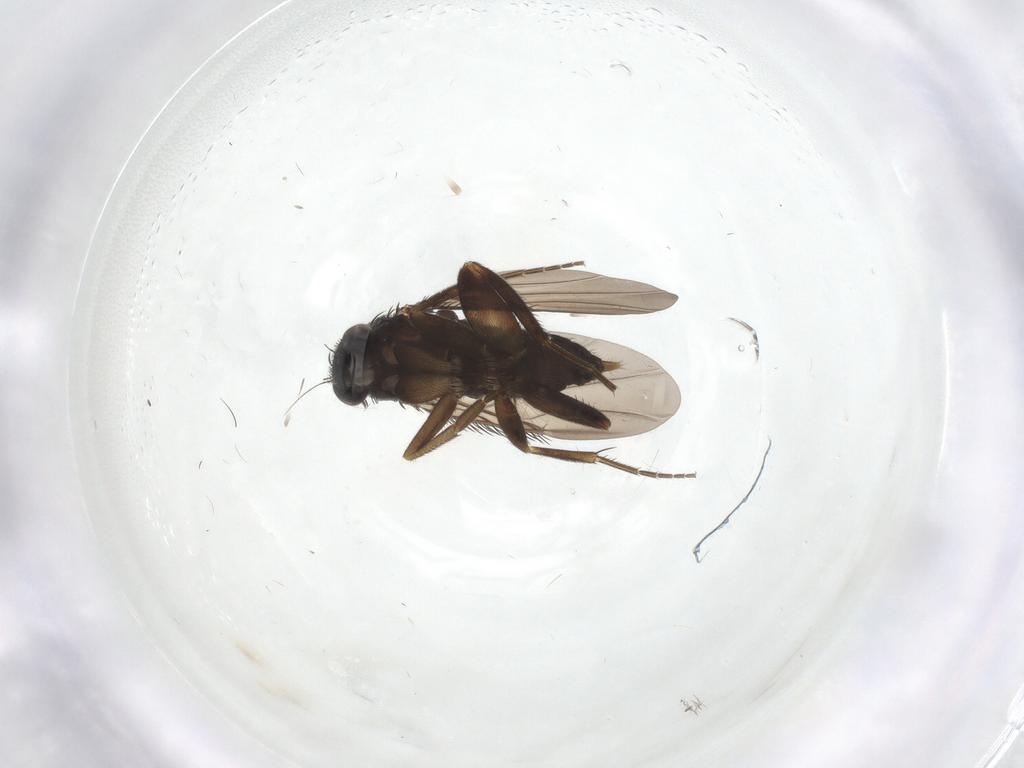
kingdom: Animalia
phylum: Arthropoda
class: Insecta
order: Diptera
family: Phoridae
